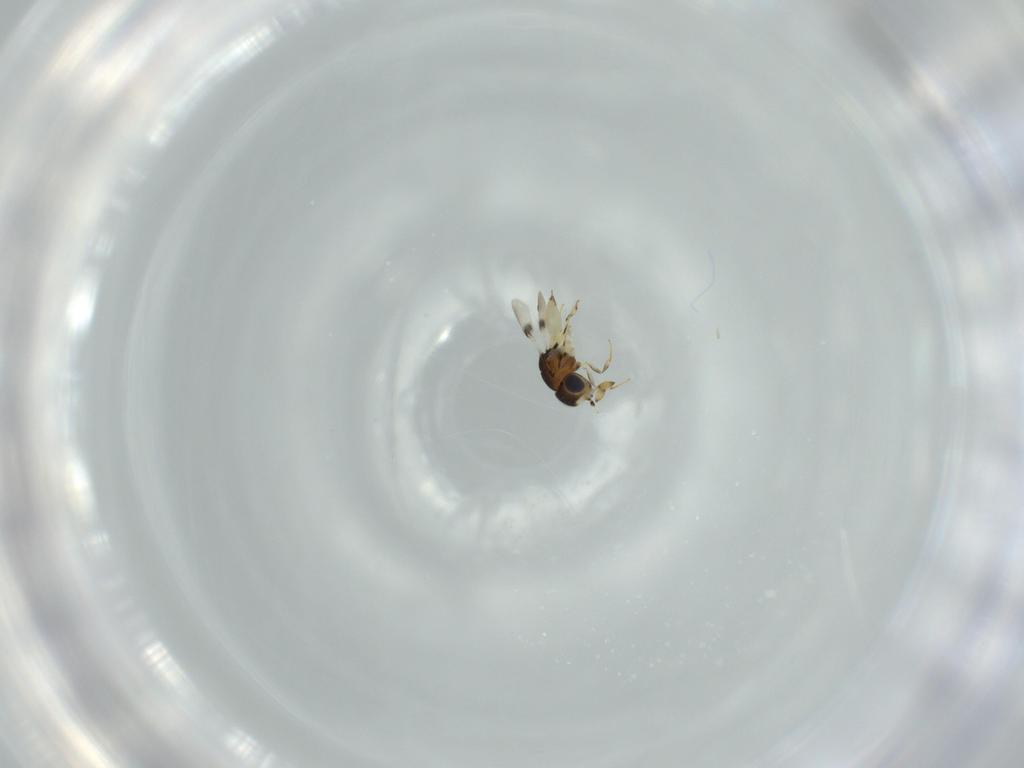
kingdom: Animalia
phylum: Arthropoda
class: Insecta
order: Hymenoptera
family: Scelionidae
